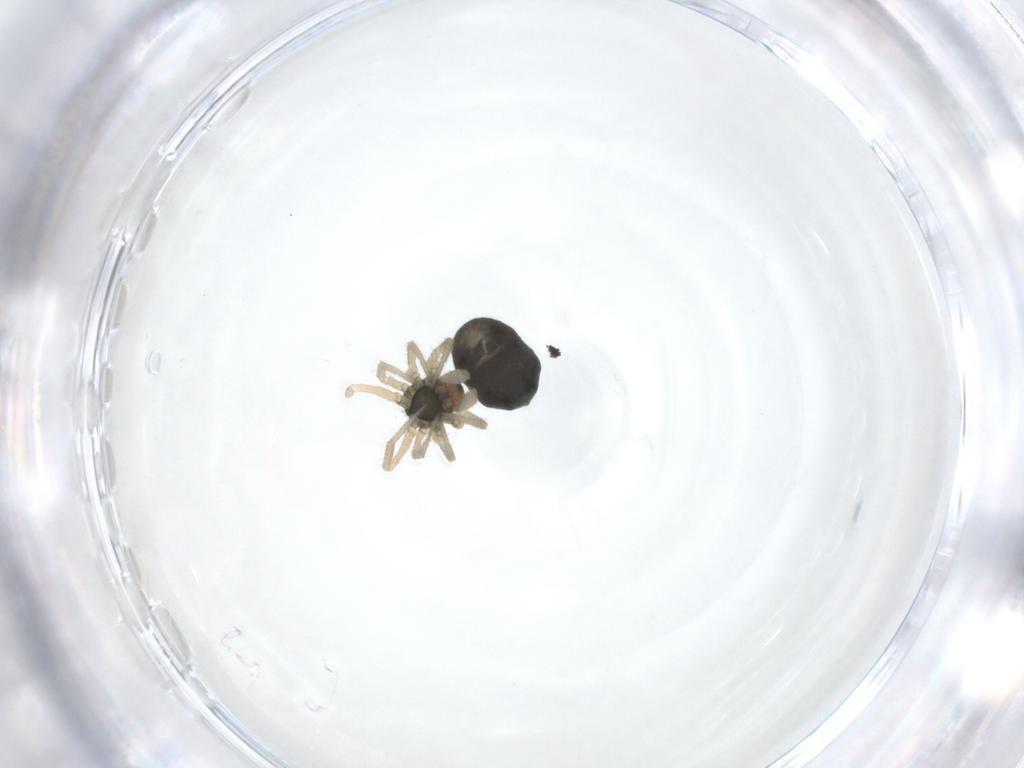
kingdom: Animalia
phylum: Arthropoda
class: Arachnida
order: Araneae
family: Linyphiidae
